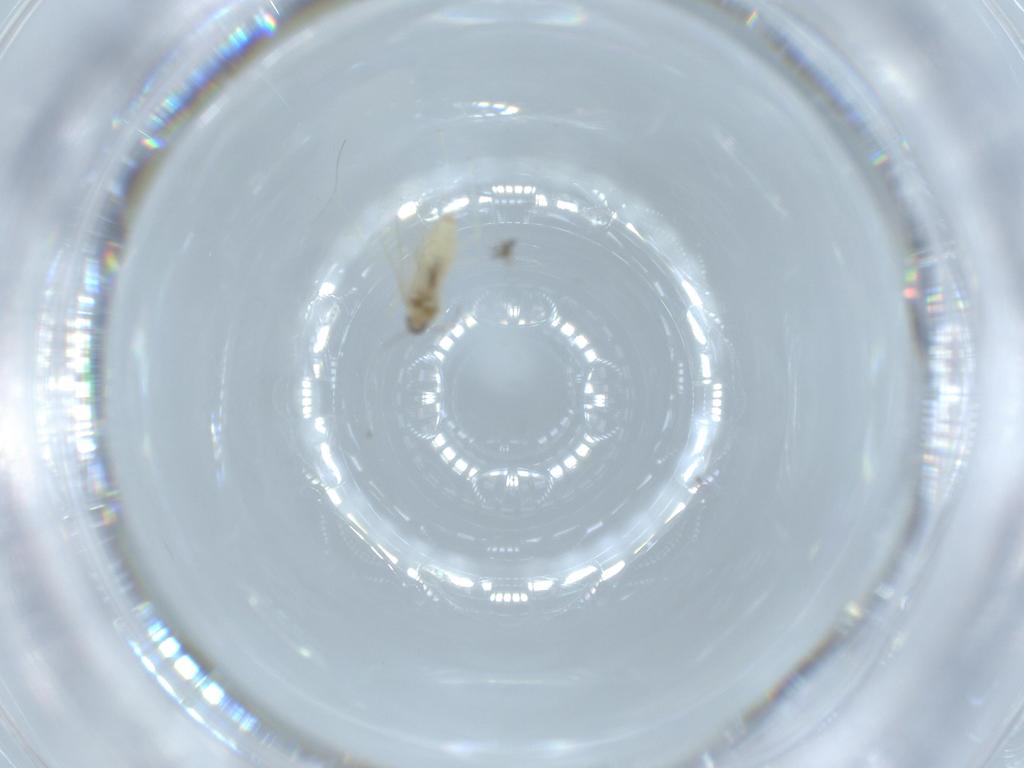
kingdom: Animalia
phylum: Arthropoda
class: Insecta
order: Diptera
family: Cecidomyiidae
